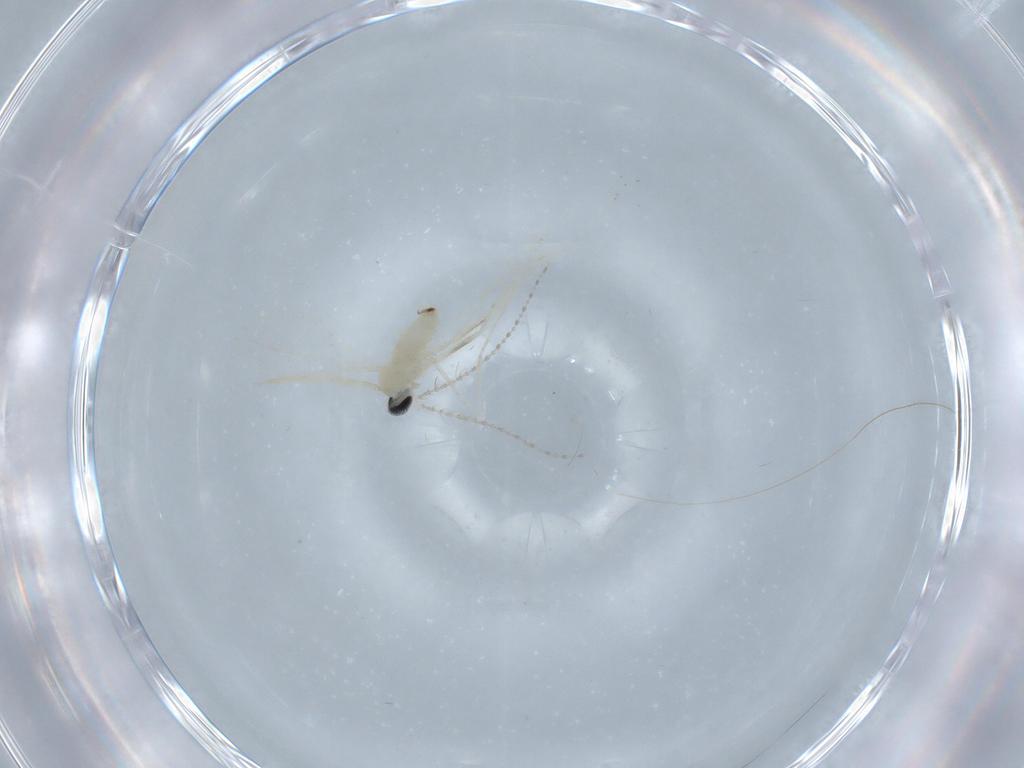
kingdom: Animalia
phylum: Arthropoda
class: Insecta
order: Diptera
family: Cecidomyiidae
